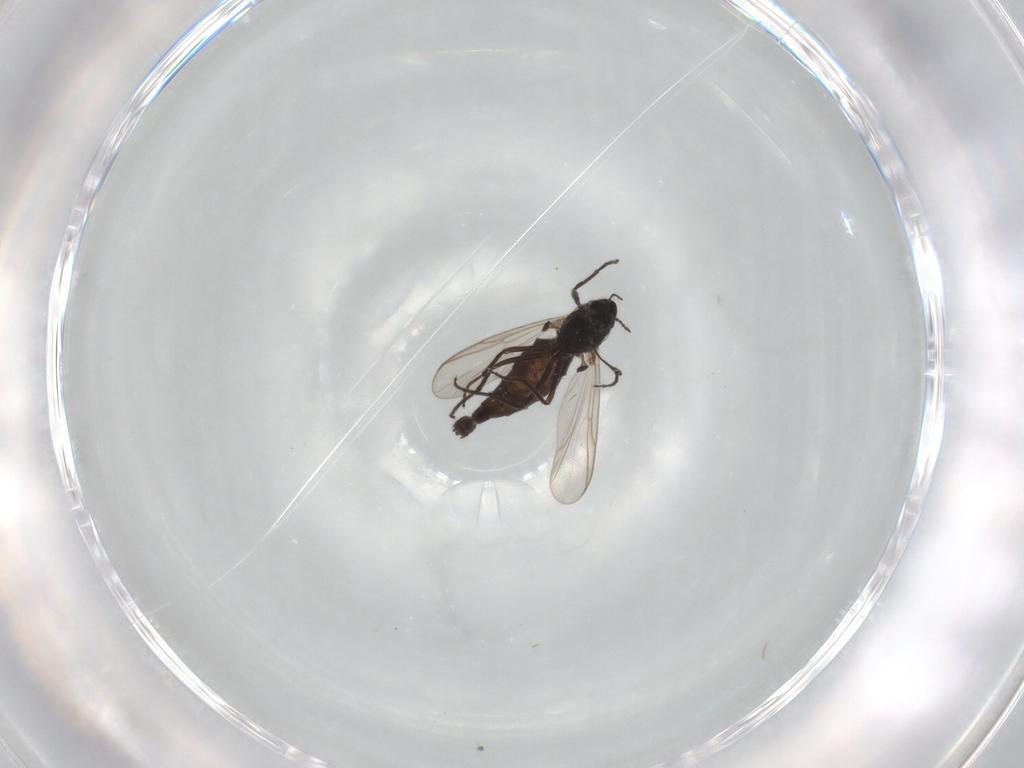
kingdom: Animalia
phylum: Arthropoda
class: Insecta
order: Diptera
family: Chironomidae
